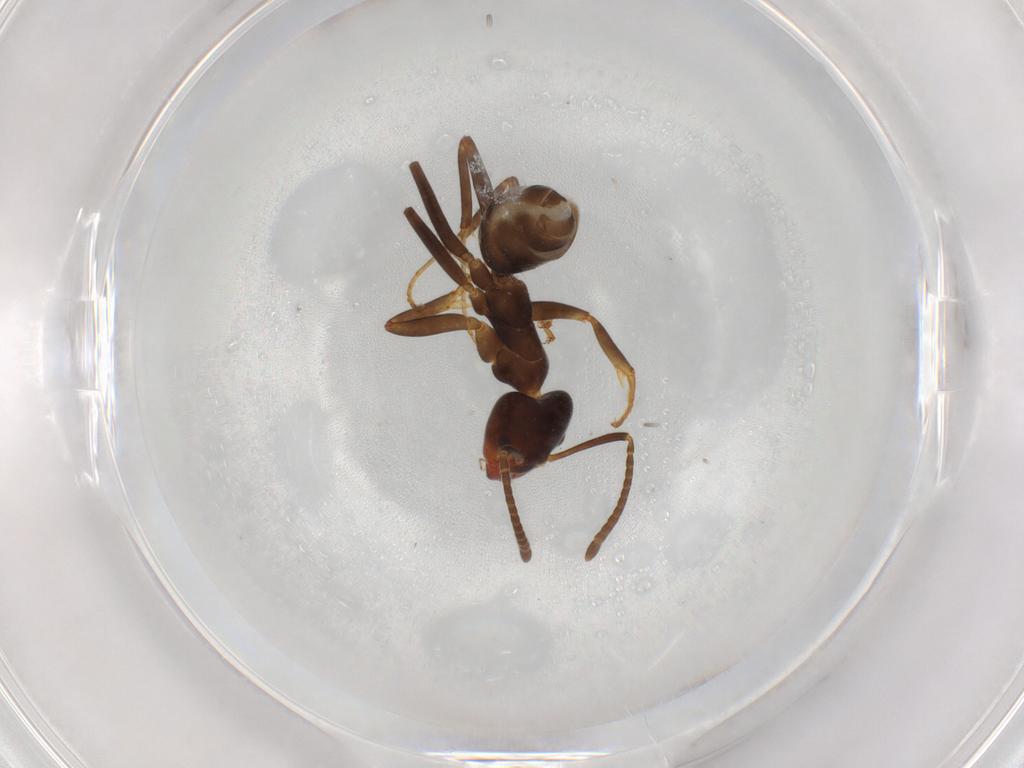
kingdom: Animalia
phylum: Arthropoda
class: Insecta
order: Hymenoptera
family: Formicidae
